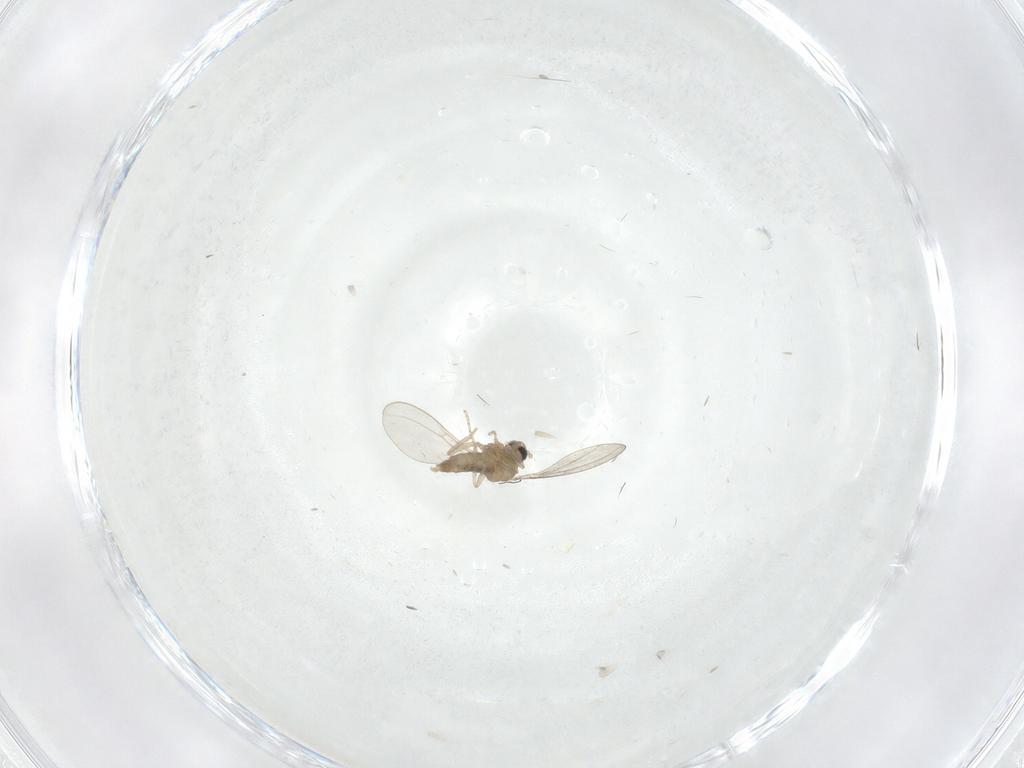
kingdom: Animalia
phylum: Arthropoda
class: Insecta
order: Diptera
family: Cecidomyiidae
